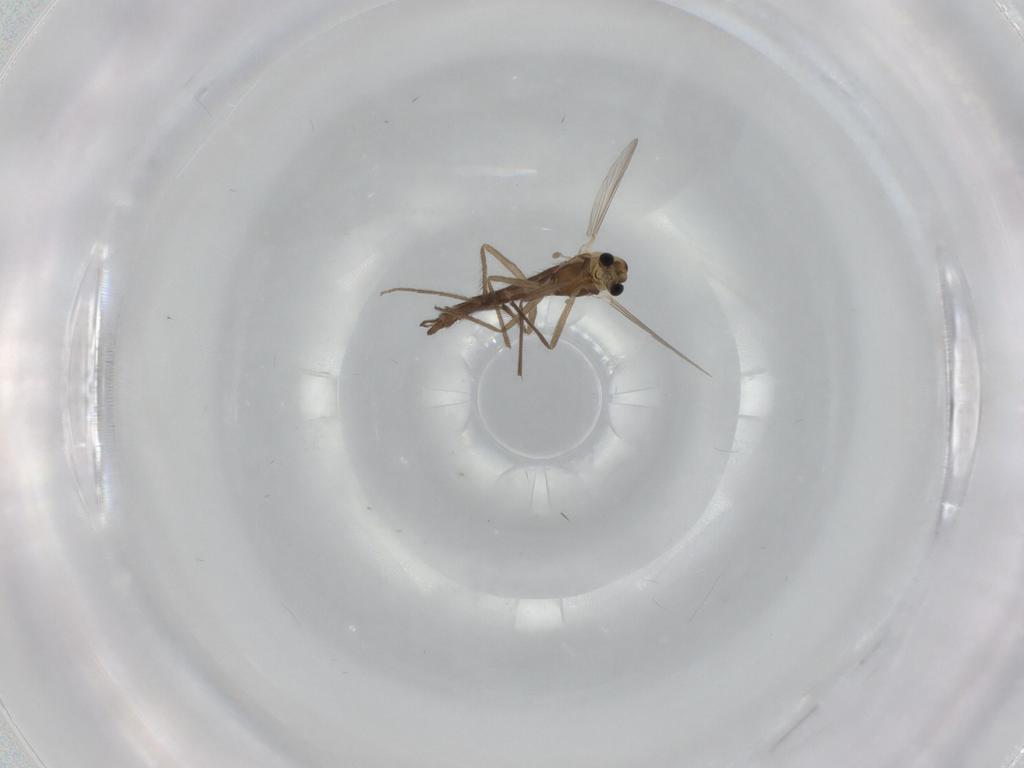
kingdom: Animalia
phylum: Arthropoda
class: Insecta
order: Diptera
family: Chironomidae
